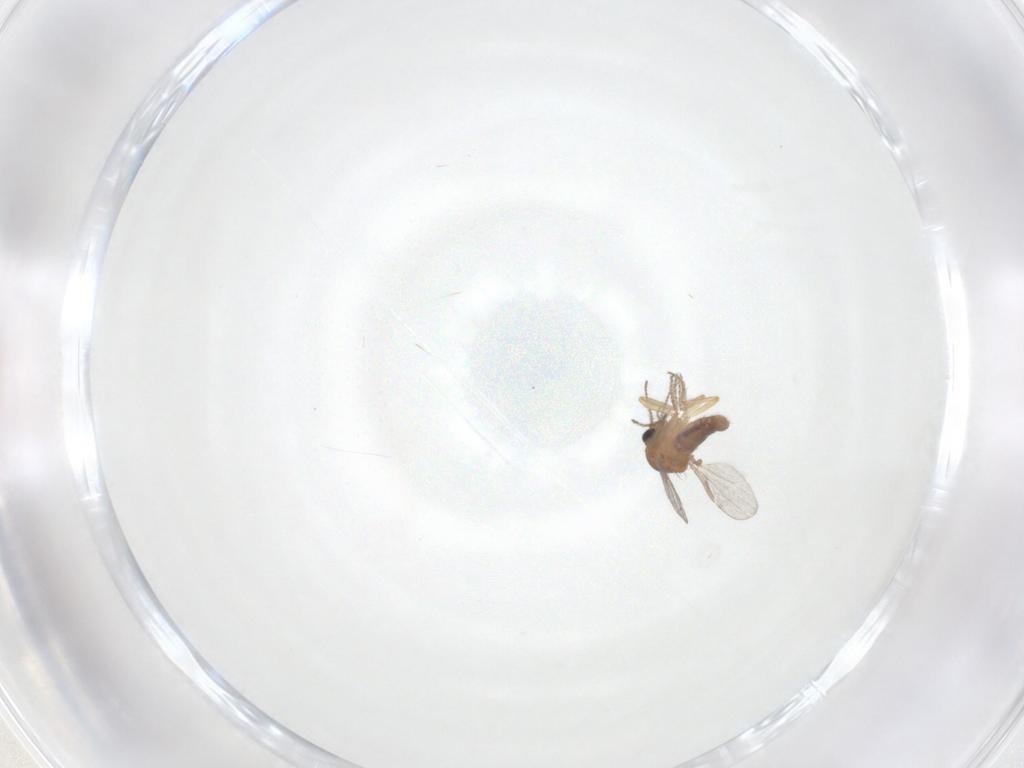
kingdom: Animalia
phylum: Arthropoda
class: Insecta
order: Diptera
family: Ceratopogonidae
